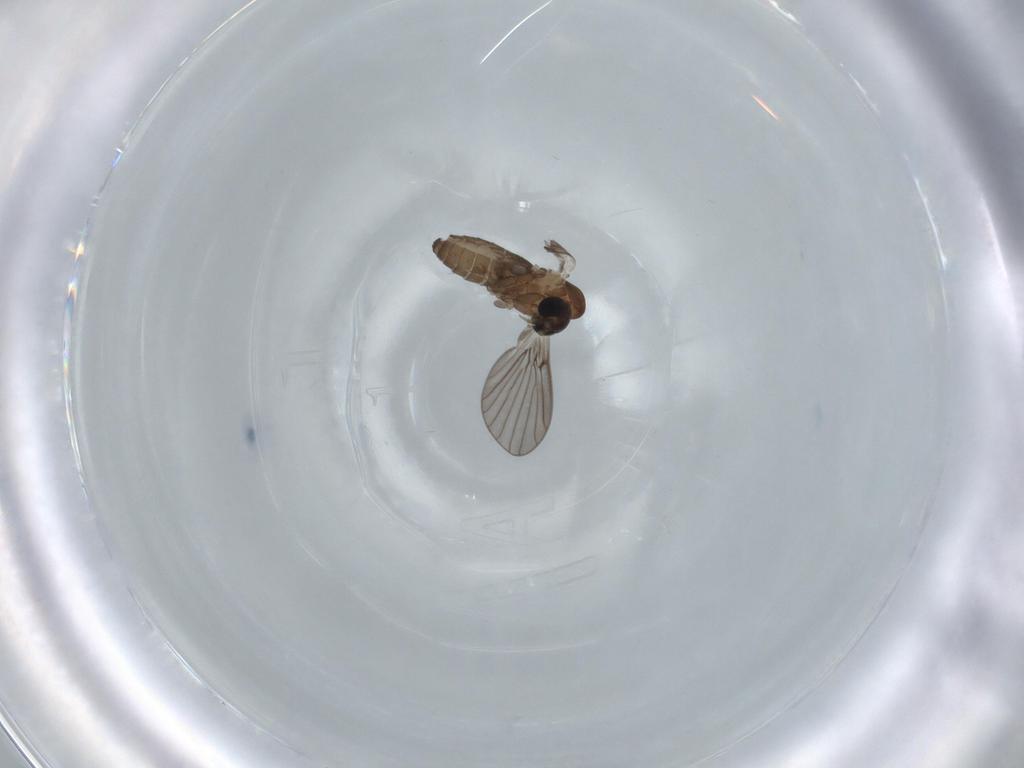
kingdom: Animalia
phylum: Arthropoda
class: Insecta
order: Diptera
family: Psychodidae
